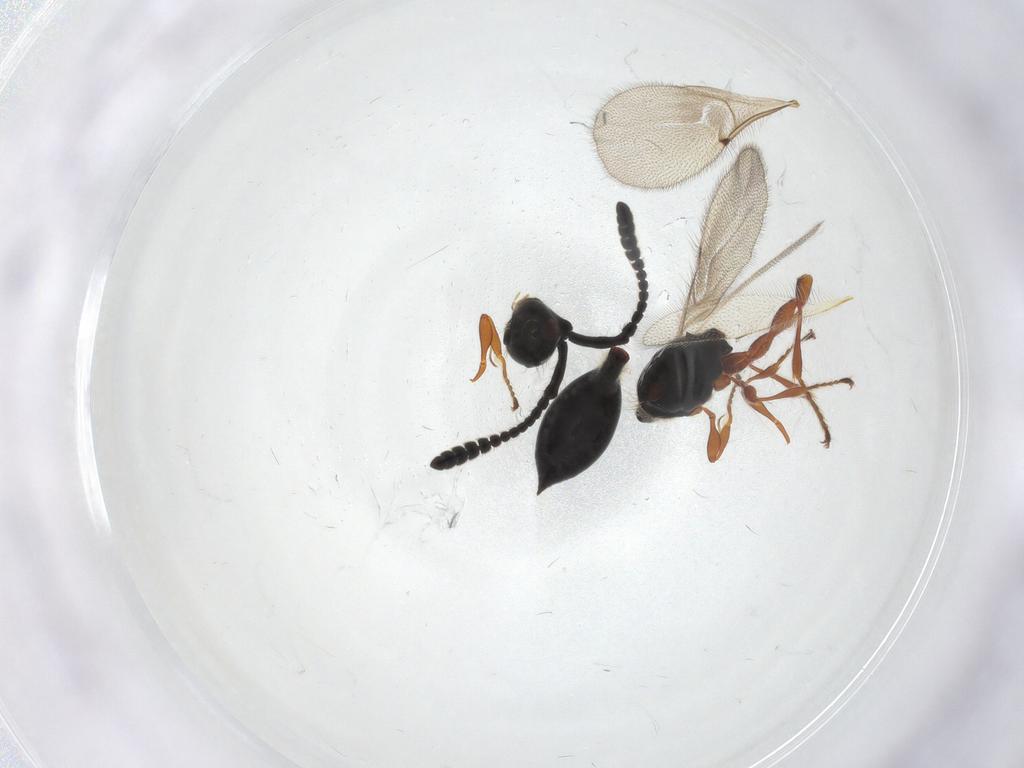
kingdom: Animalia
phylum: Arthropoda
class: Insecta
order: Hymenoptera
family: Diapriidae
